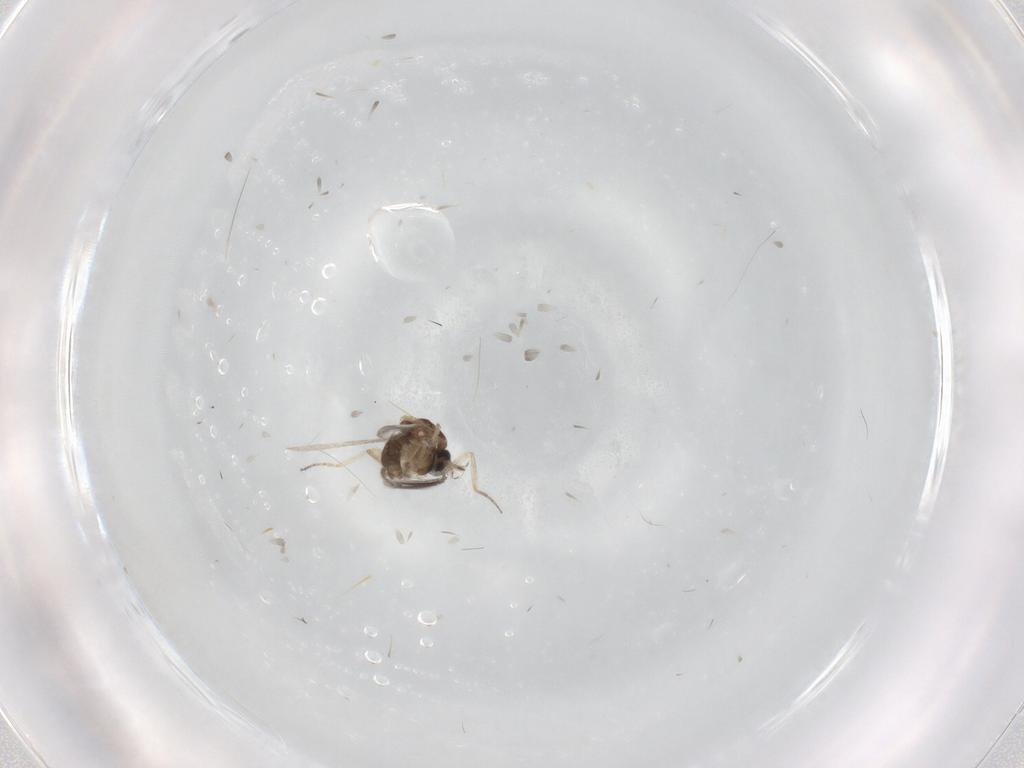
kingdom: Animalia
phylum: Arthropoda
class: Insecta
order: Diptera
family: Ceratopogonidae
